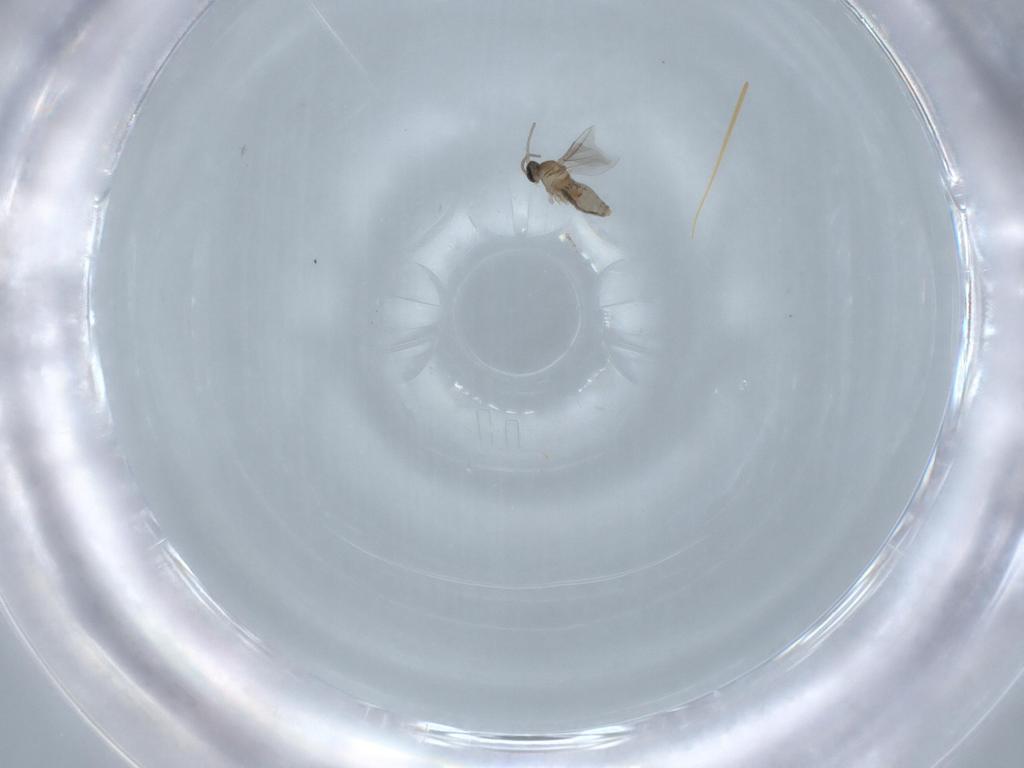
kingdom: Animalia
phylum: Arthropoda
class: Insecta
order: Diptera
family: Cecidomyiidae
